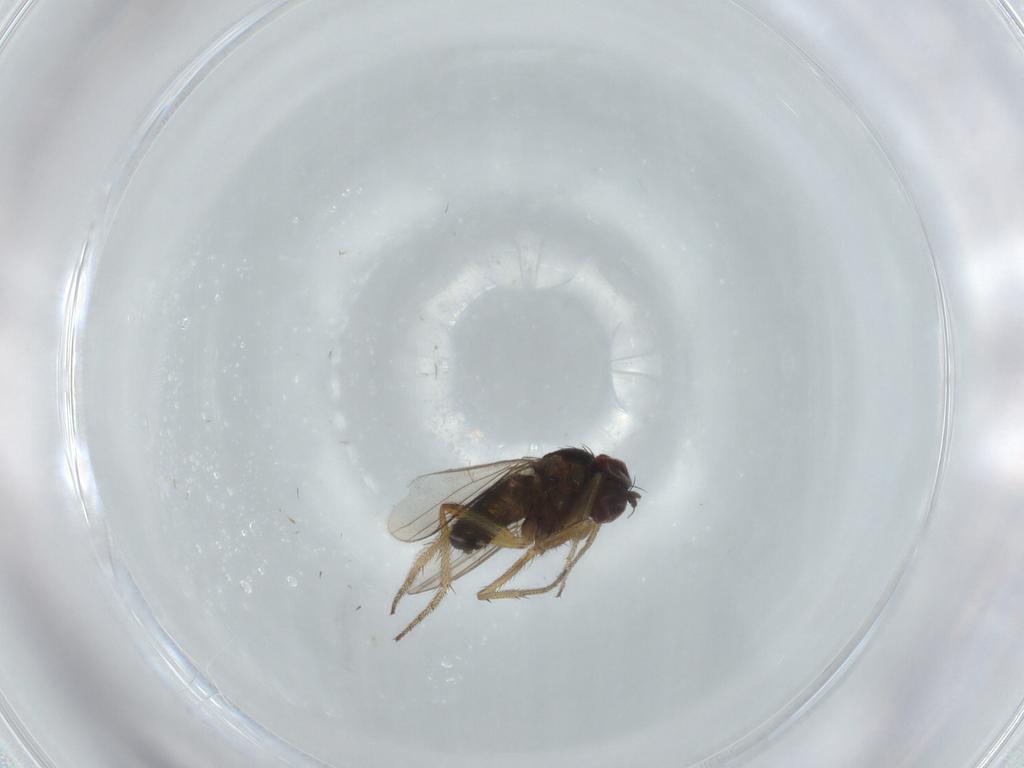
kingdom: Animalia
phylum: Arthropoda
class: Insecta
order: Diptera
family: Dolichopodidae
